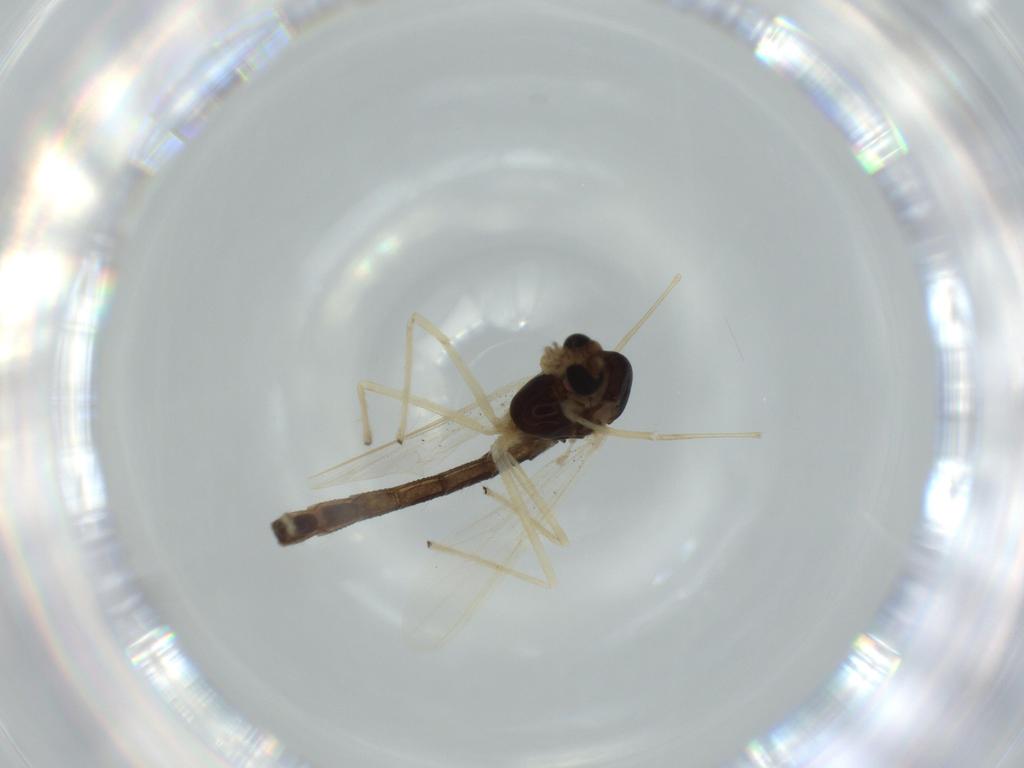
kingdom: Animalia
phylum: Arthropoda
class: Insecta
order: Diptera
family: Chironomidae
